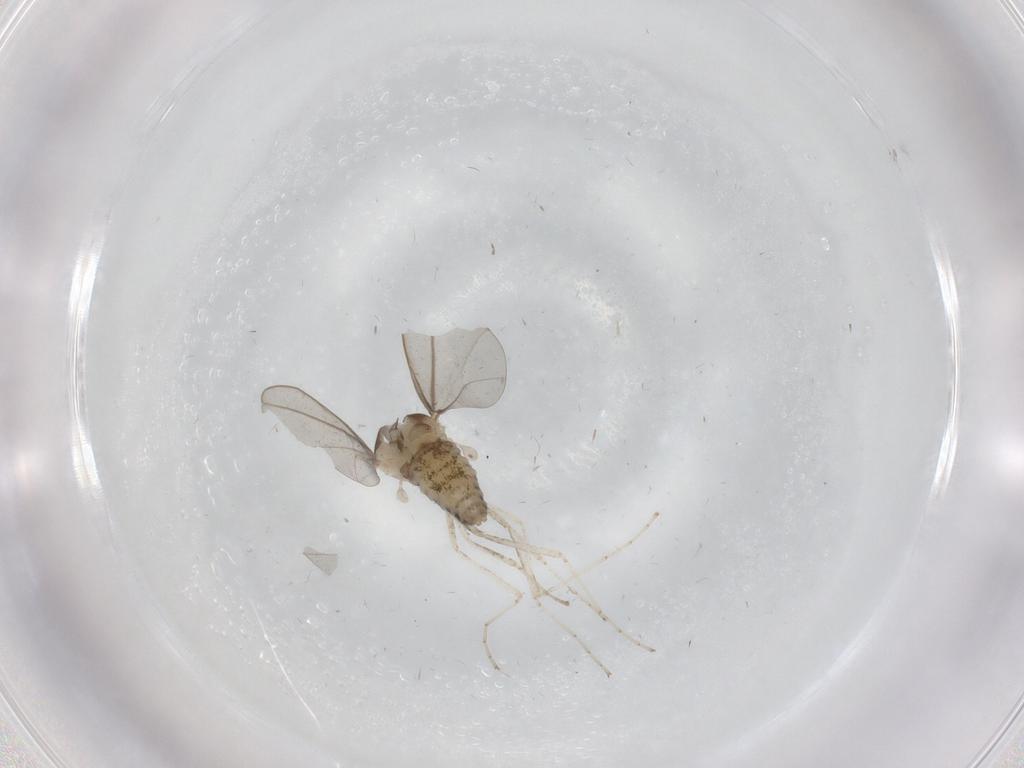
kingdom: Animalia
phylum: Arthropoda
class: Insecta
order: Diptera
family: Cecidomyiidae
